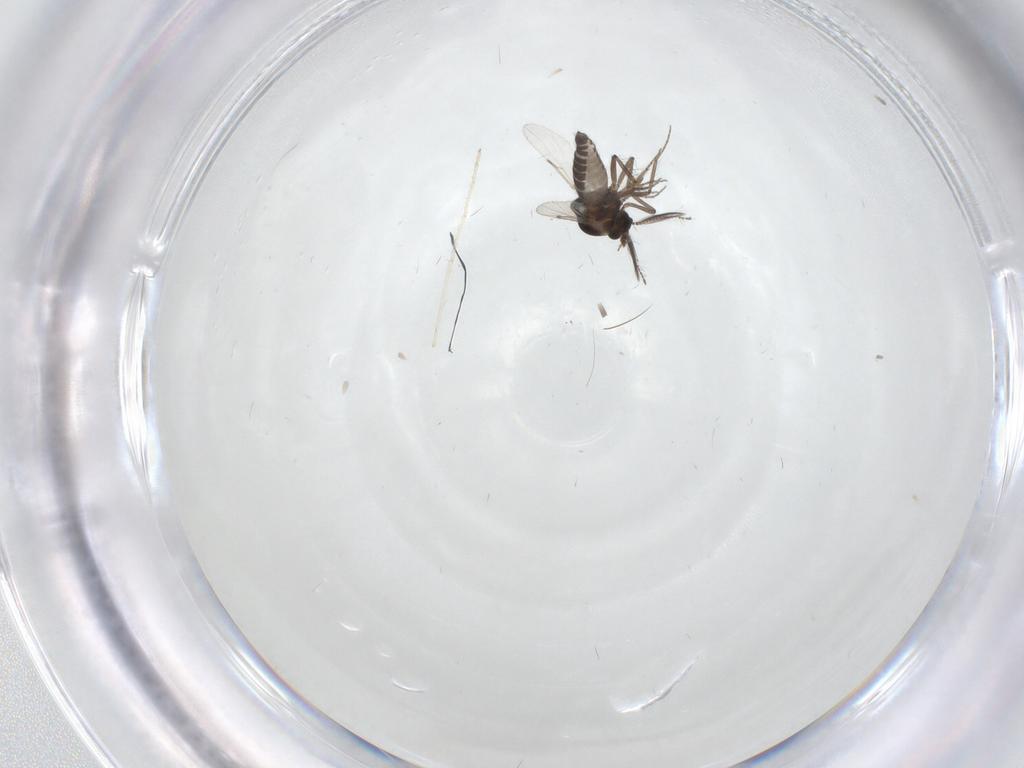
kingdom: Animalia
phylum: Arthropoda
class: Insecta
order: Diptera
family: Ceratopogonidae
